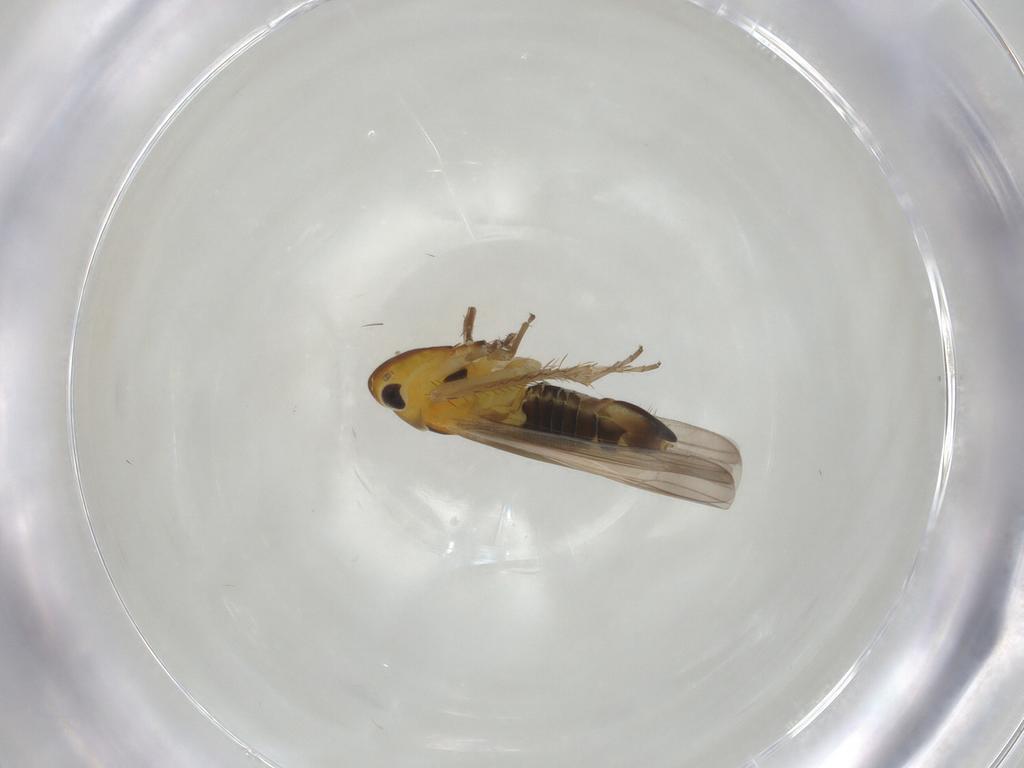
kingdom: Animalia
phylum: Arthropoda
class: Insecta
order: Hemiptera
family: Cicadellidae
